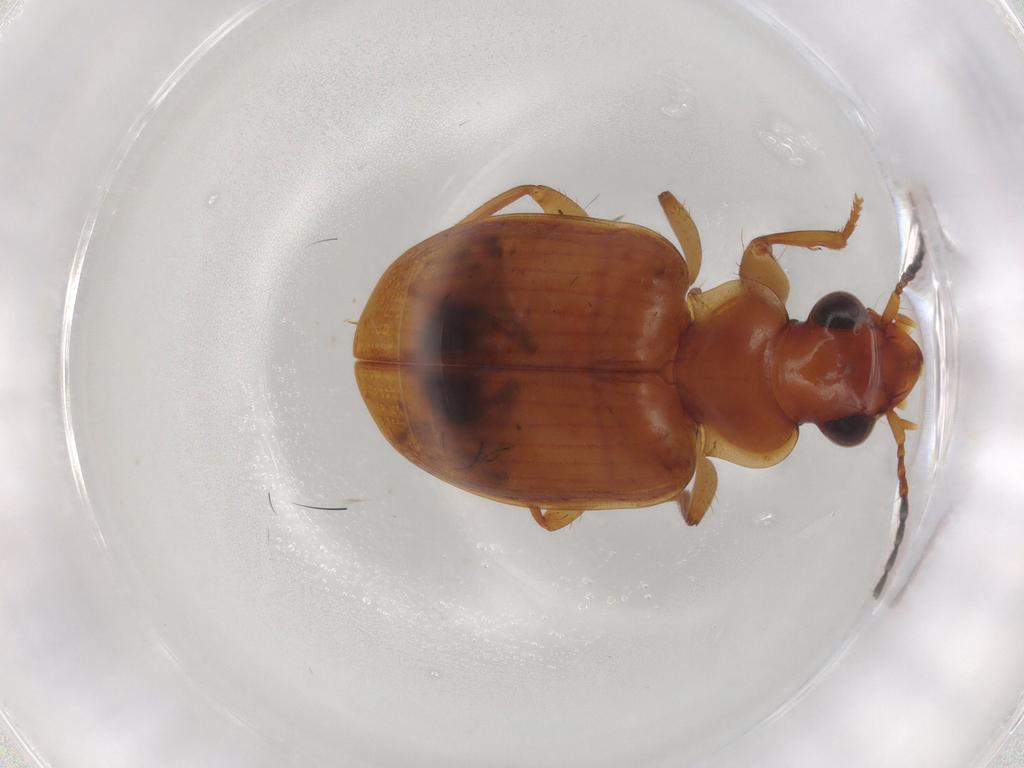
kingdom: Animalia
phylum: Arthropoda
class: Insecta
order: Coleoptera
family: Carabidae
